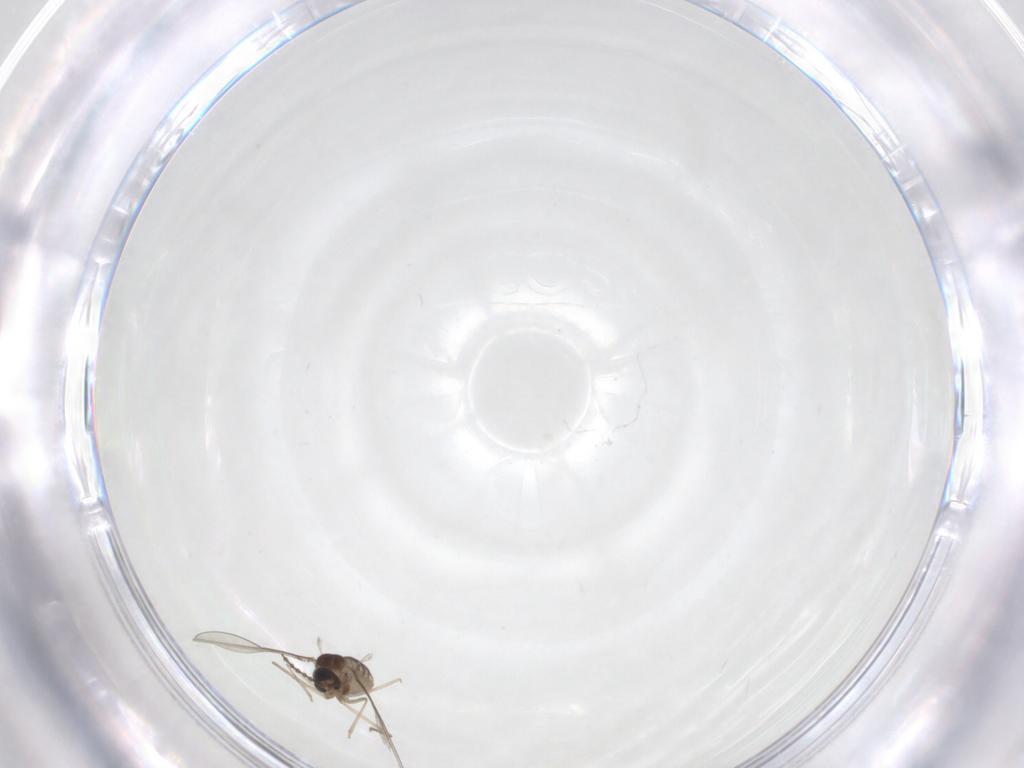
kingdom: Animalia
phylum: Arthropoda
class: Insecta
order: Diptera
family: Cecidomyiidae
